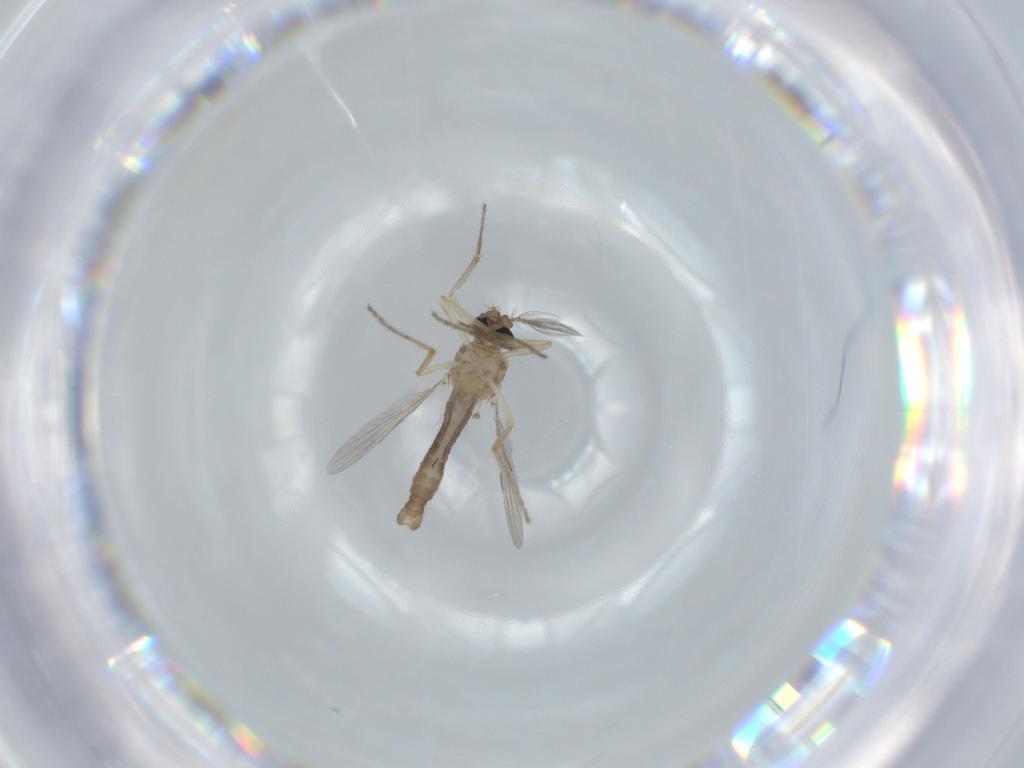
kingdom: Animalia
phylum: Arthropoda
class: Insecta
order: Diptera
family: Ceratopogonidae
